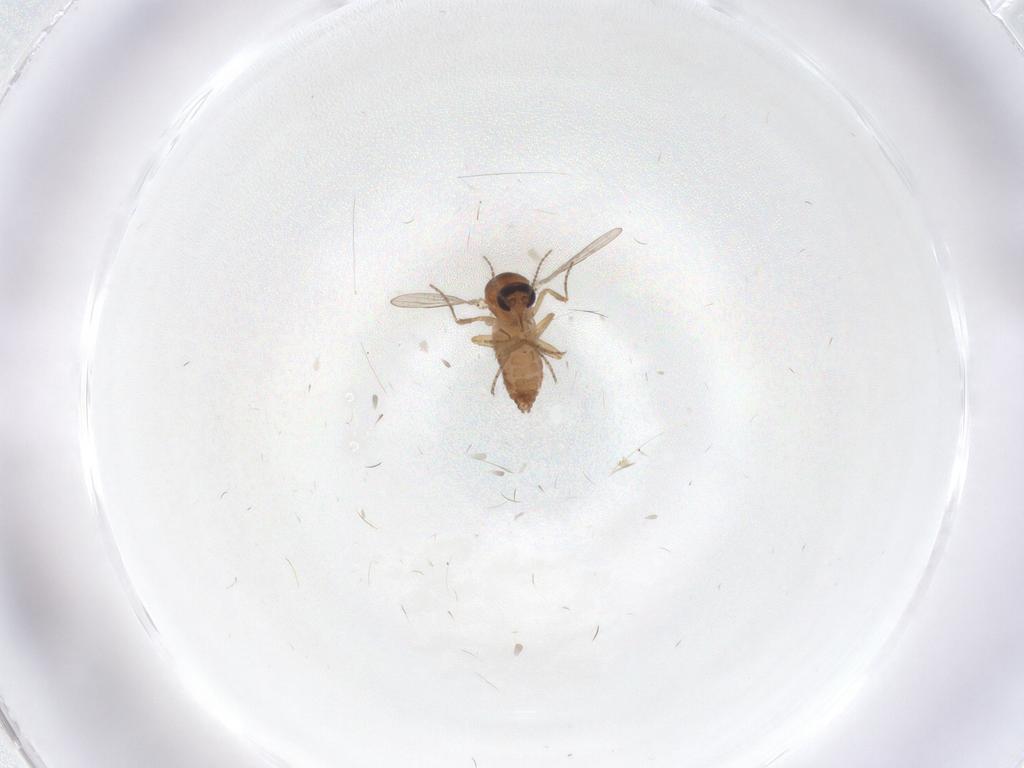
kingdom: Animalia
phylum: Arthropoda
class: Insecta
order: Diptera
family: Ceratopogonidae
